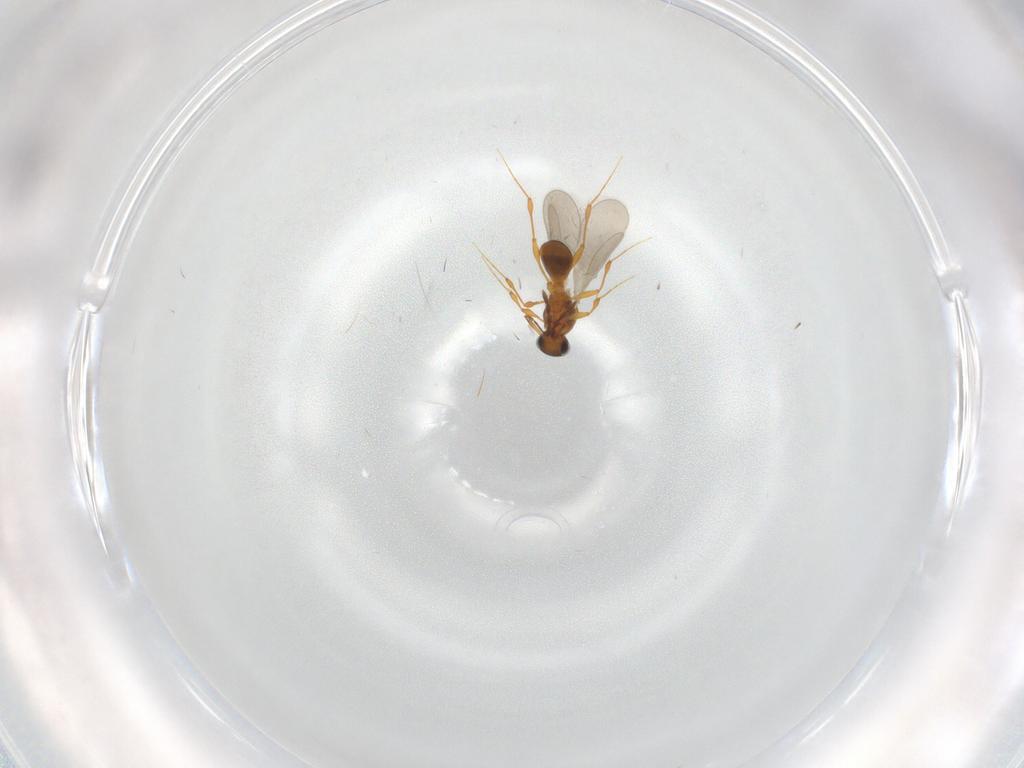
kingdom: Animalia
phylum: Arthropoda
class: Insecta
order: Hymenoptera
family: Platygastridae
